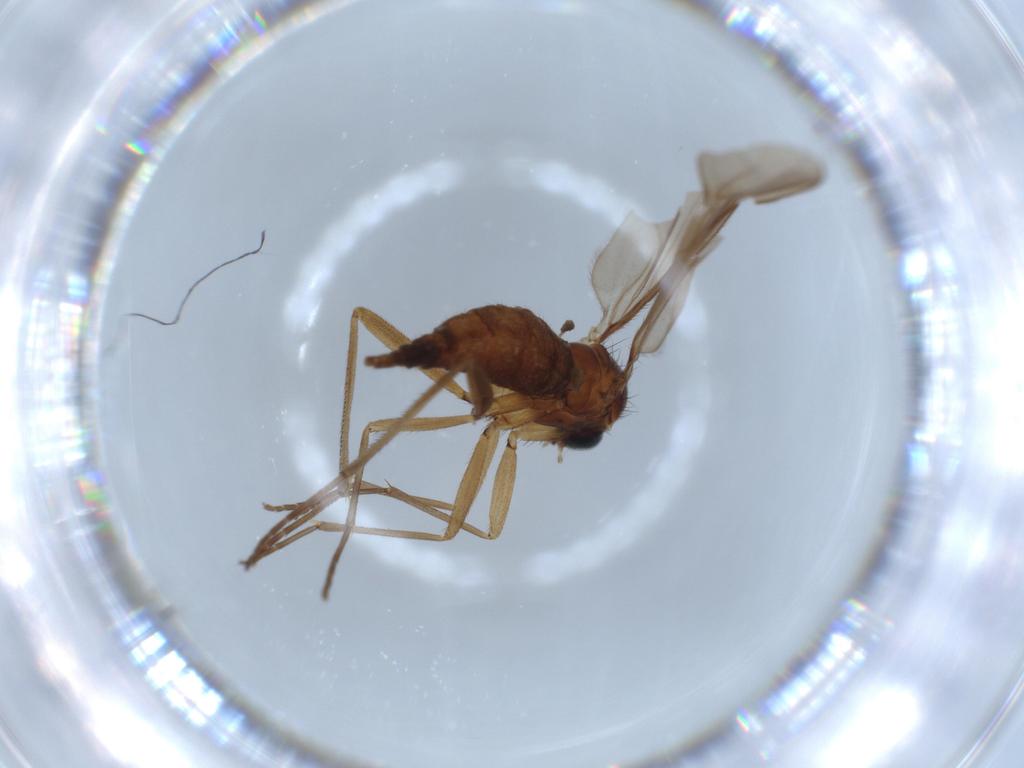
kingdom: Animalia
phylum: Arthropoda
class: Insecta
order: Diptera
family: Sciaridae
